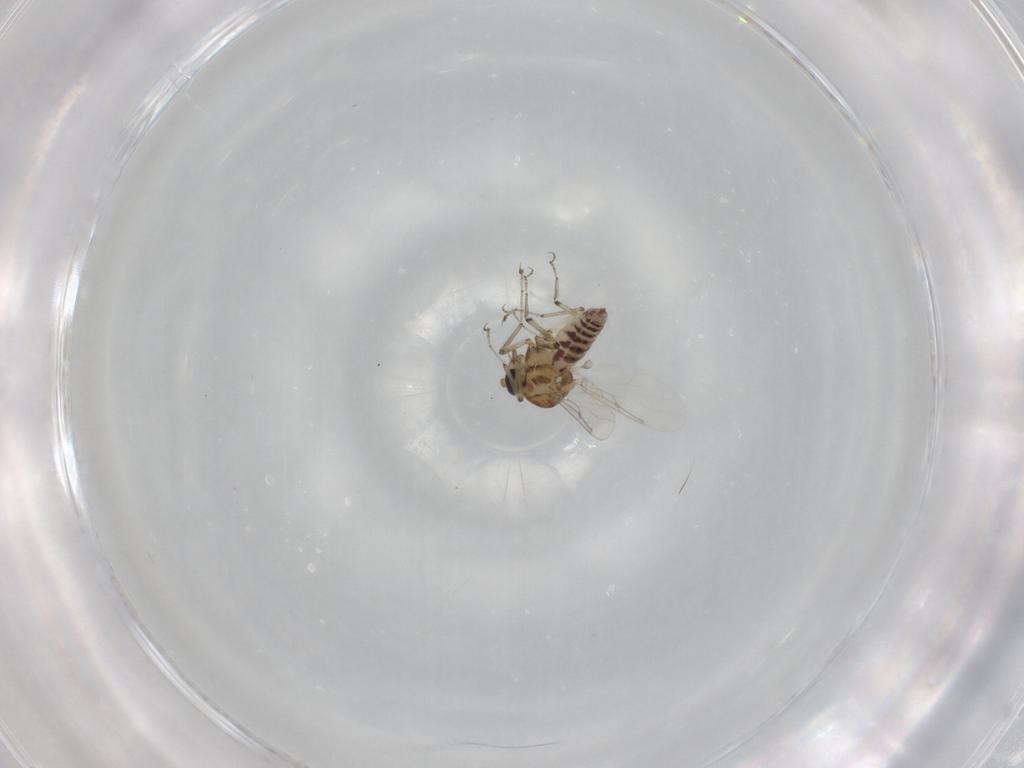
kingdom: Animalia
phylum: Arthropoda
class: Insecta
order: Diptera
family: Ceratopogonidae
